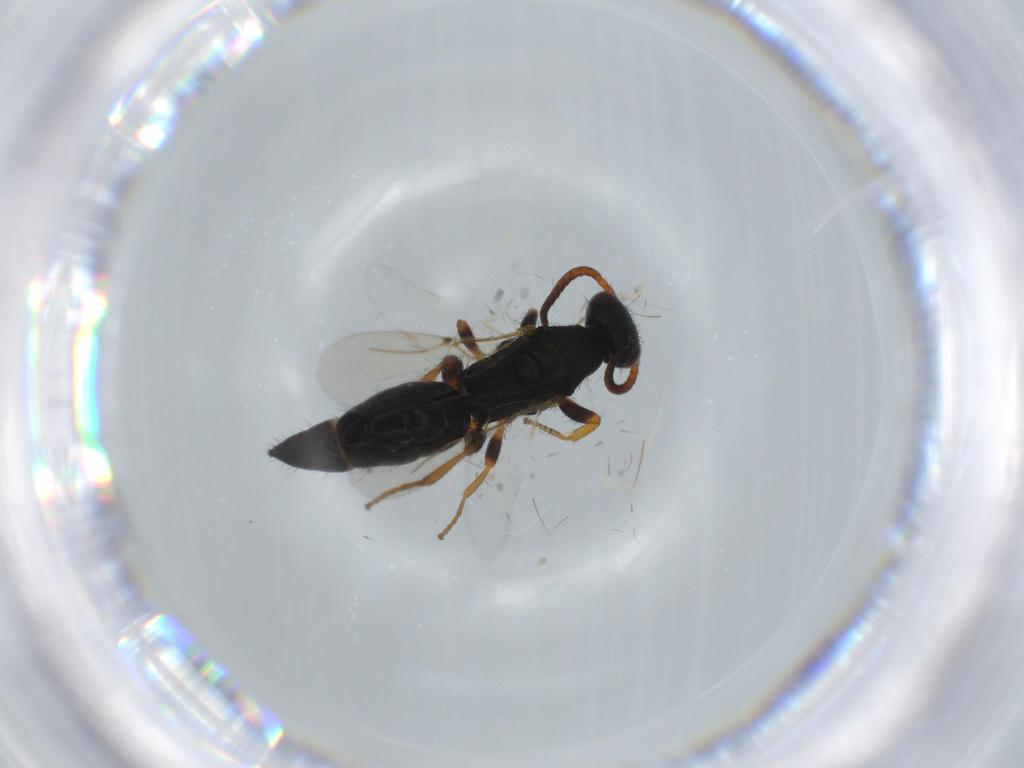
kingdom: Animalia
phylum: Arthropoda
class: Insecta
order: Hymenoptera
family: Bethylidae
